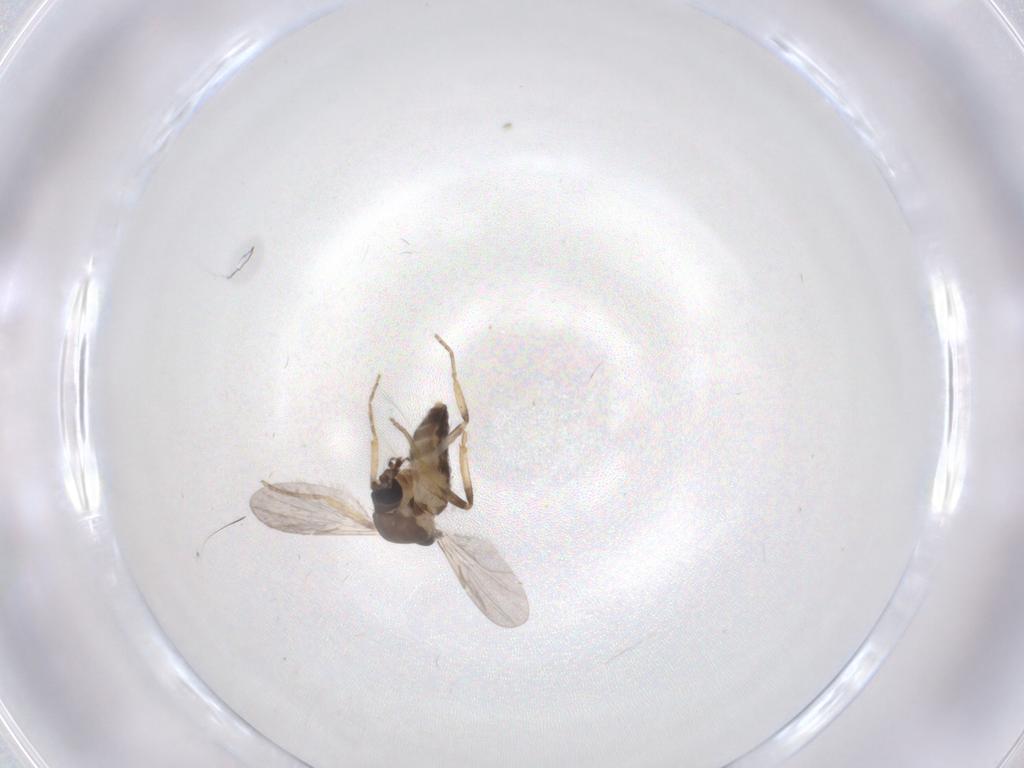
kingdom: Animalia
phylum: Arthropoda
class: Insecta
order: Diptera
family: Ceratopogonidae
